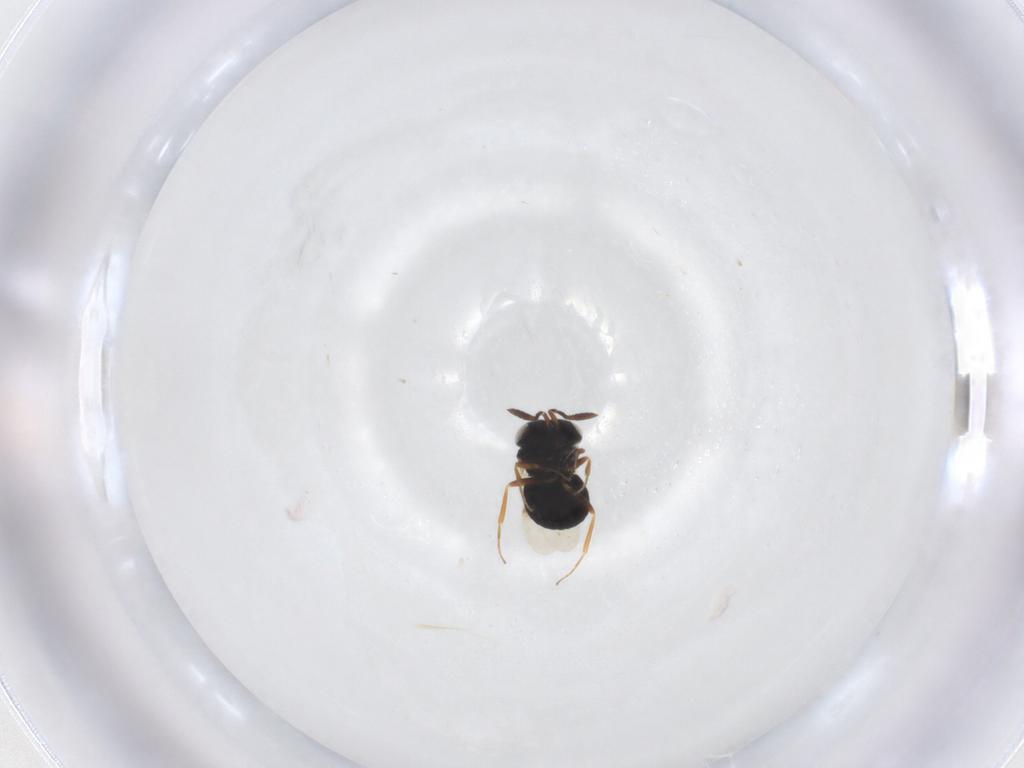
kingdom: Animalia
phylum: Arthropoda
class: Insecta
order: Hymenoptera
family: Scelionidae
